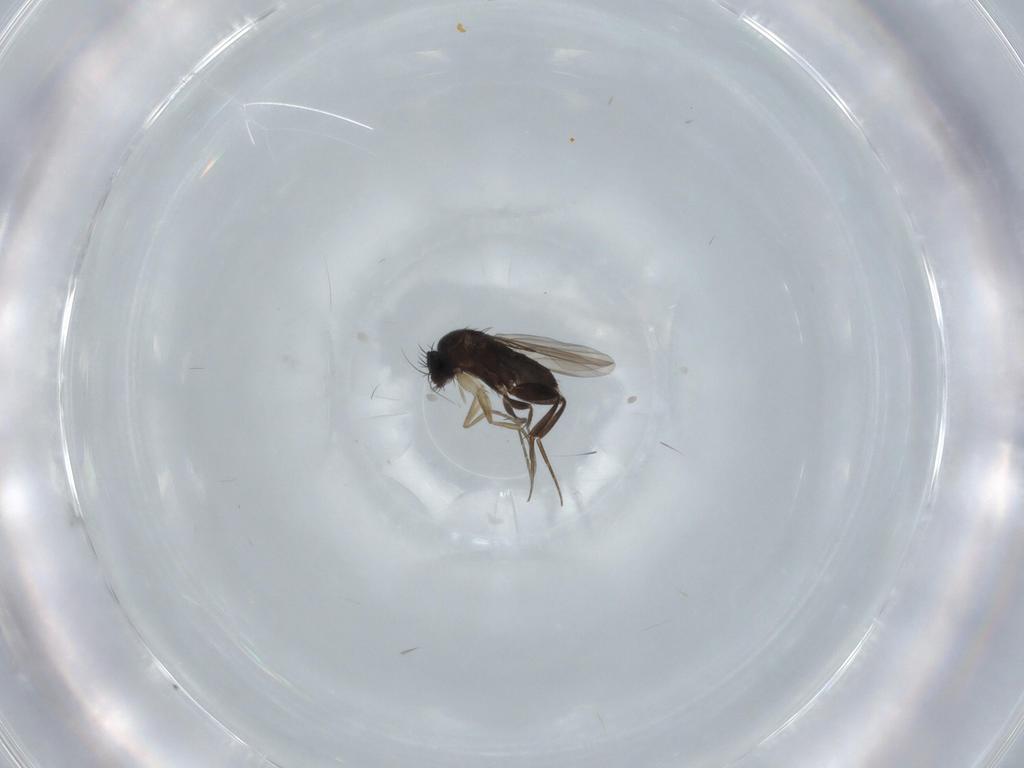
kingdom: Animalia
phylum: Arthropoda
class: Insecta
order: Diptera
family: Phoridae
